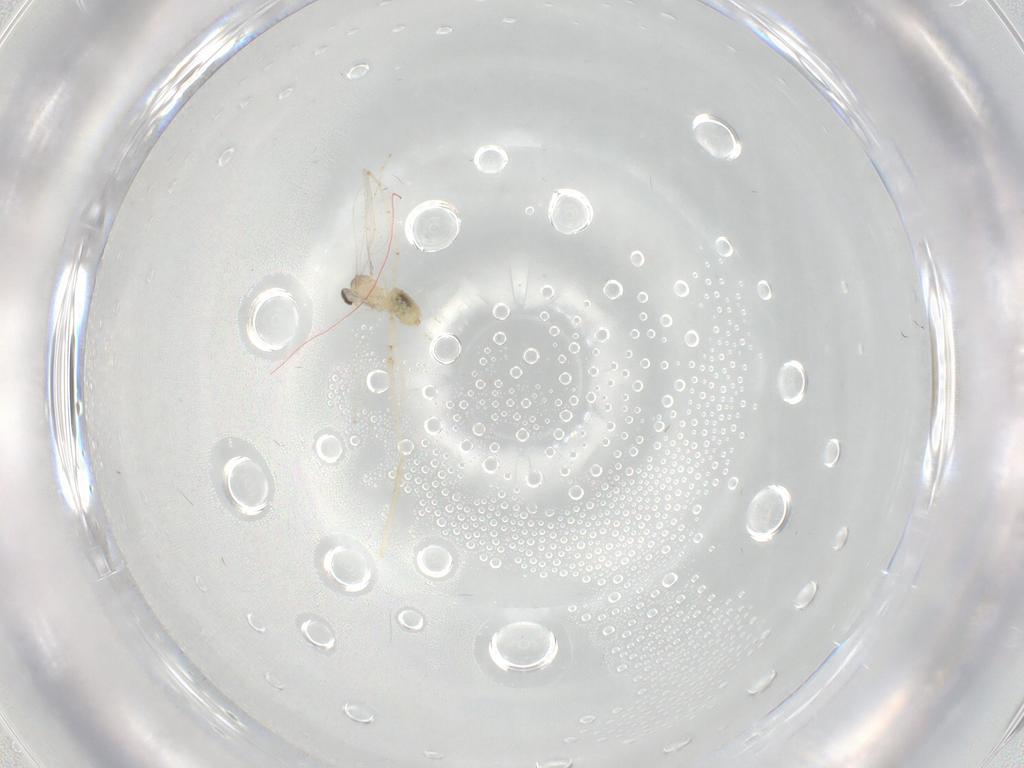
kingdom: Animalia
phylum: Arthropoda
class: Insecta
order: Diptera
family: Cecidomyiidae
